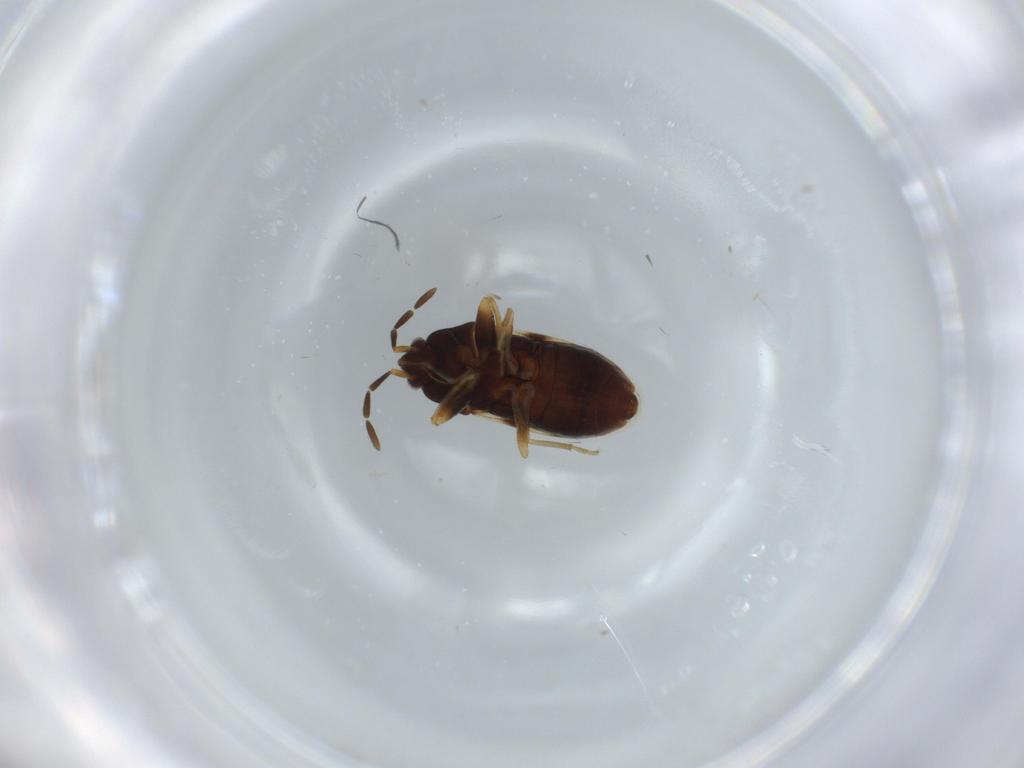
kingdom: Animalia
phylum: Arthropoda
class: Insecta
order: Hemiptera
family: Rhyparochromidae
